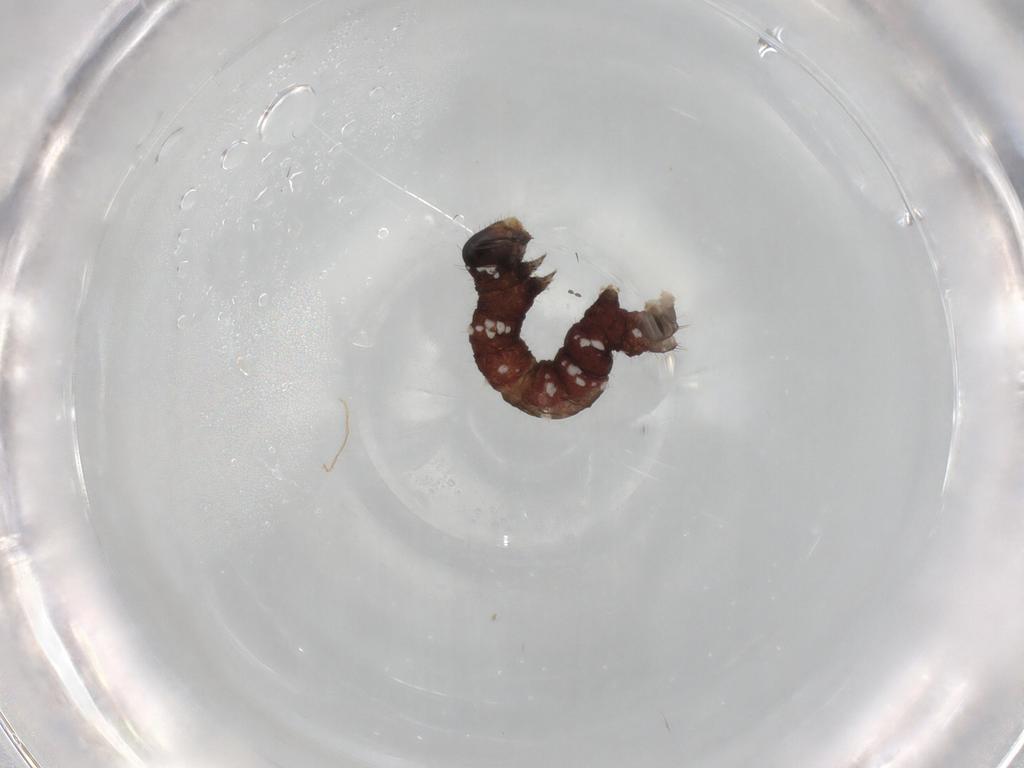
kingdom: Animalia
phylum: Arthropoda
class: Insecta
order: Lepidoptera
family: Geometridae
